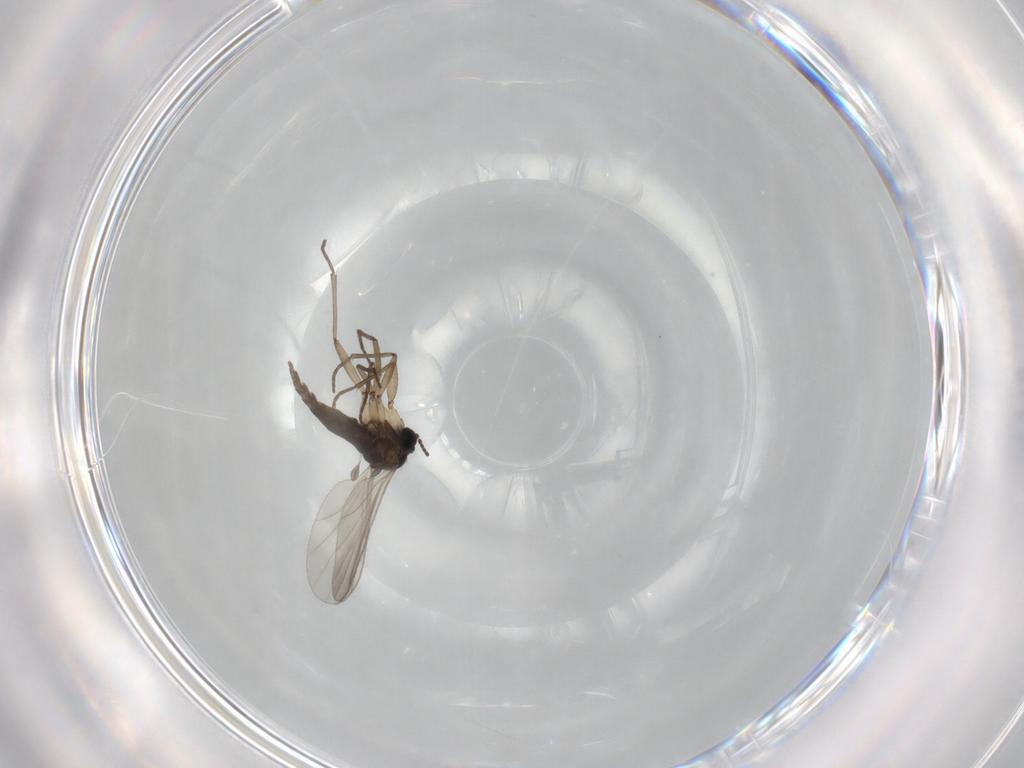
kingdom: Animalia
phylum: Arthropoda
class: Insecta
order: Diptera
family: Sciaridae
